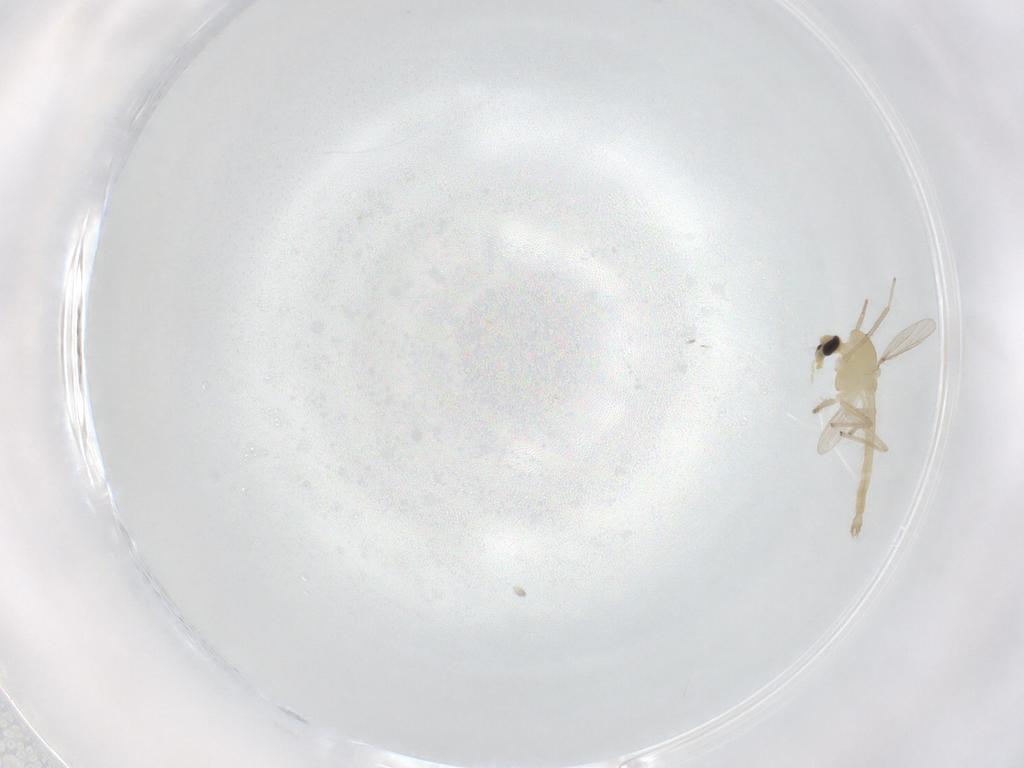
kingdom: Animalia
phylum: Arthropoda
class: Insecta
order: Diptera
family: Chironomidae
